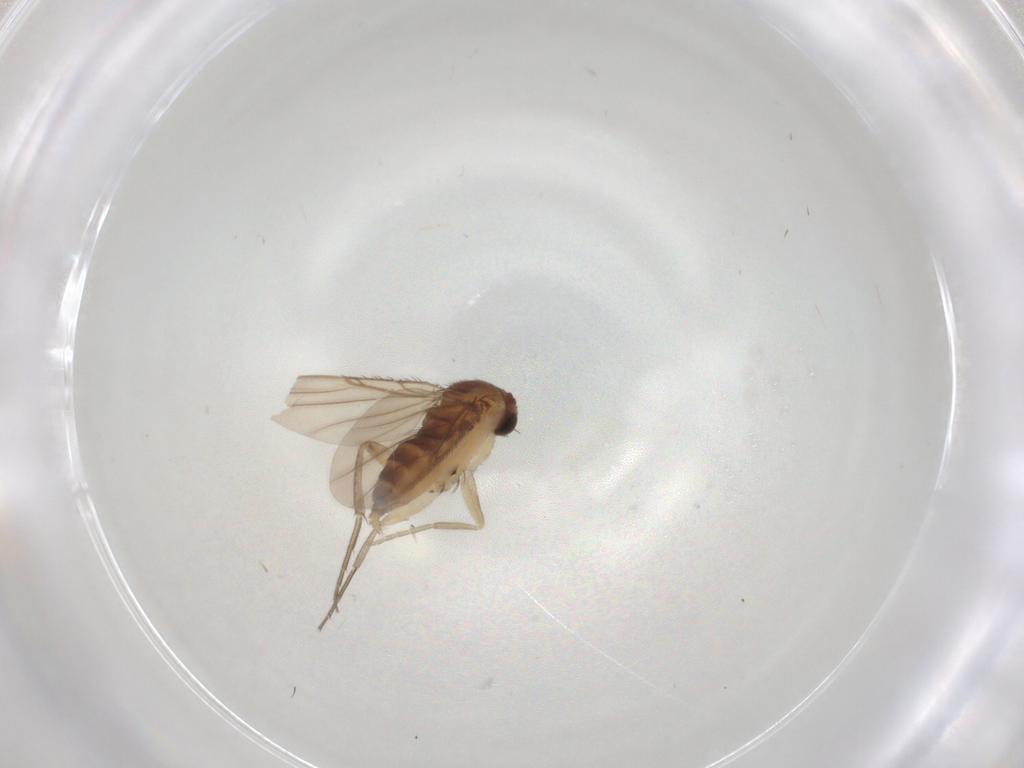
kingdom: Animalia
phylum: Arthropoda
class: Insecta
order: Diptera
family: Phoridae
